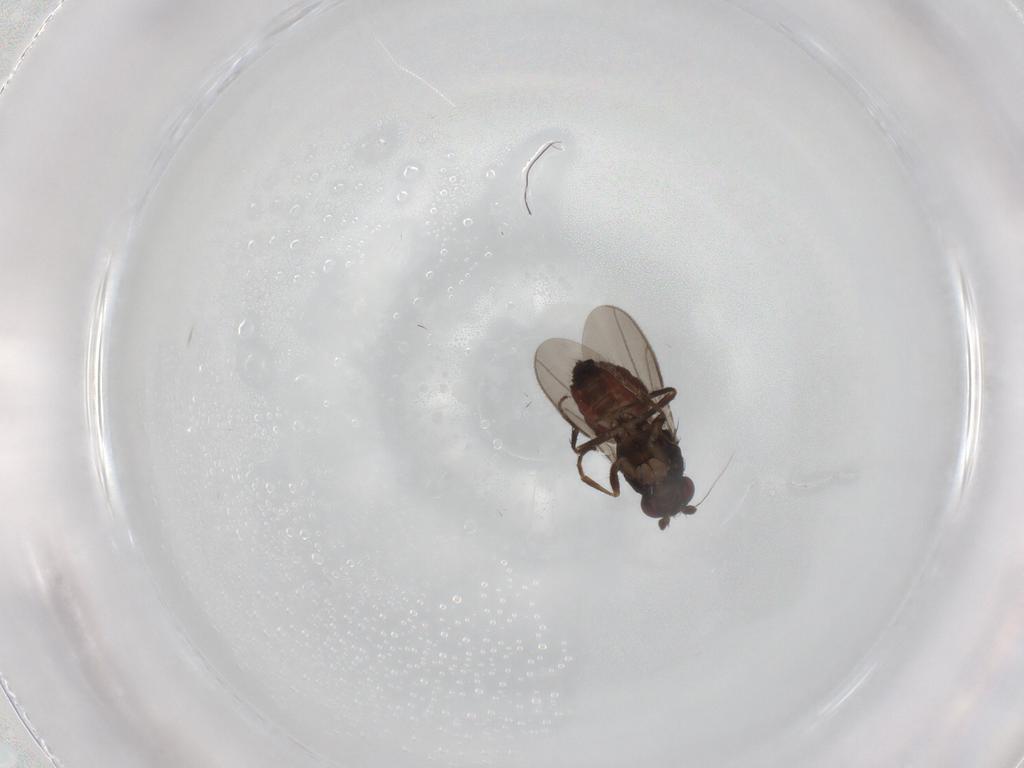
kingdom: Animalia
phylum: Arthropoda
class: Insecta
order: Diptera
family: Sphaeroceridae
